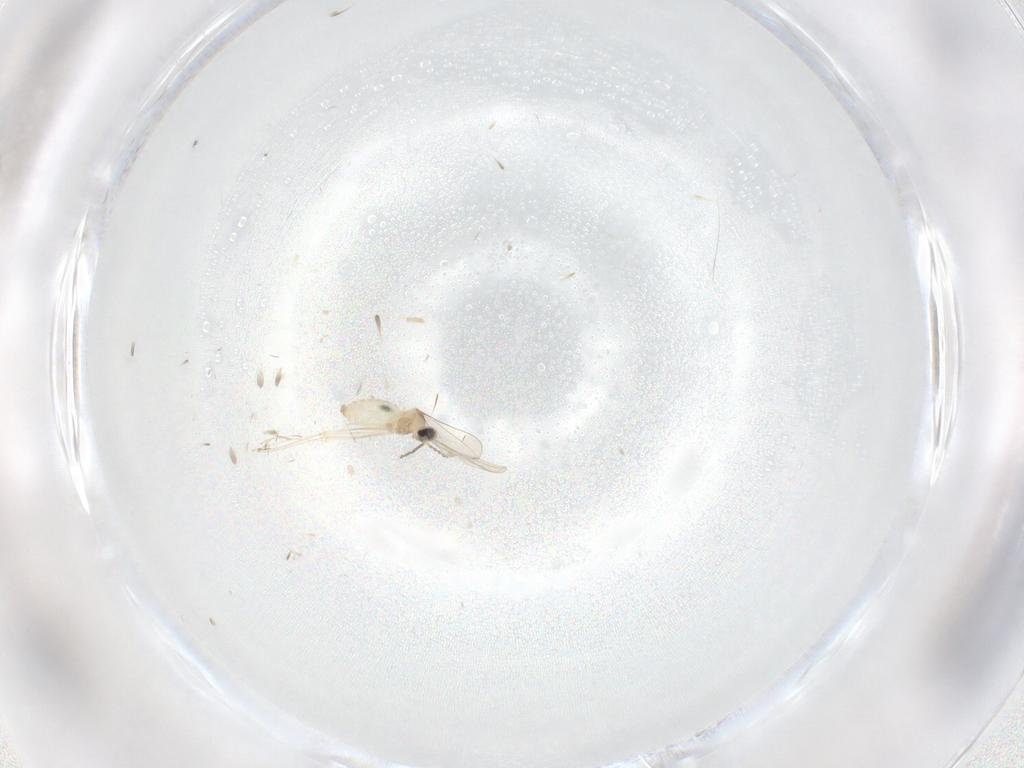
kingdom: Animalia
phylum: Arthropoda
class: Insecta
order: Diptera
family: Cecidomyiidae
